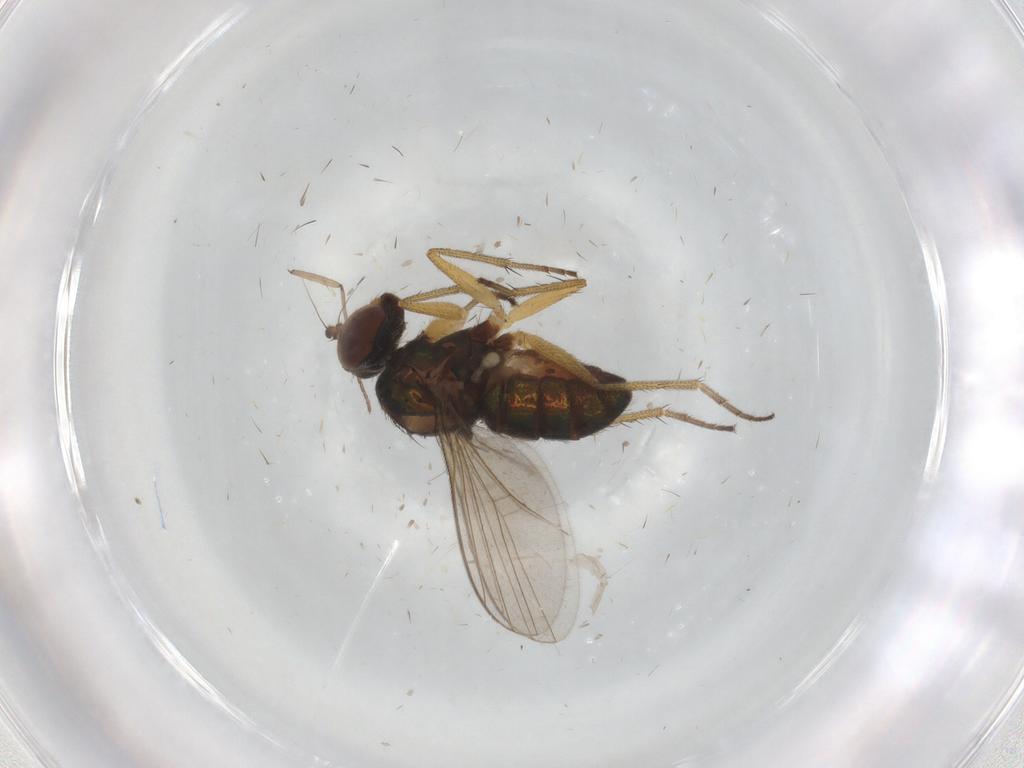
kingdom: Animalia
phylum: Arthropoda
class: Insecta
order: Diptera
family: Dolichopodidae
